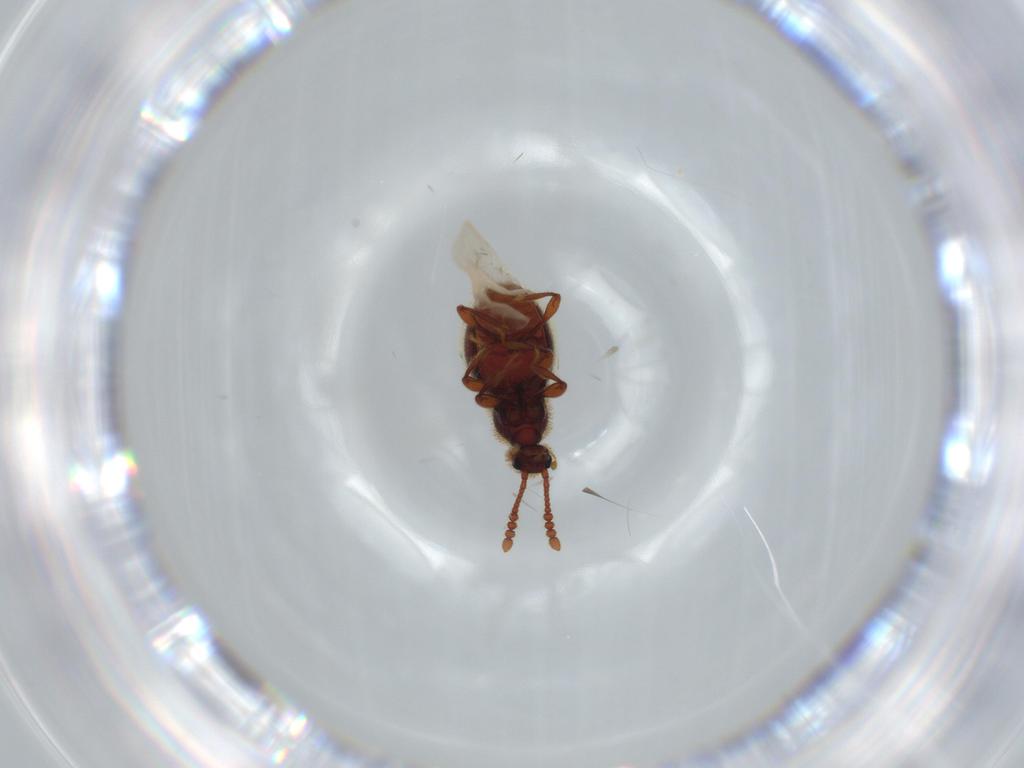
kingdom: Animalia
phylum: Arthropoda
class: Insecta
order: Coleoptera
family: Staphylinidae
